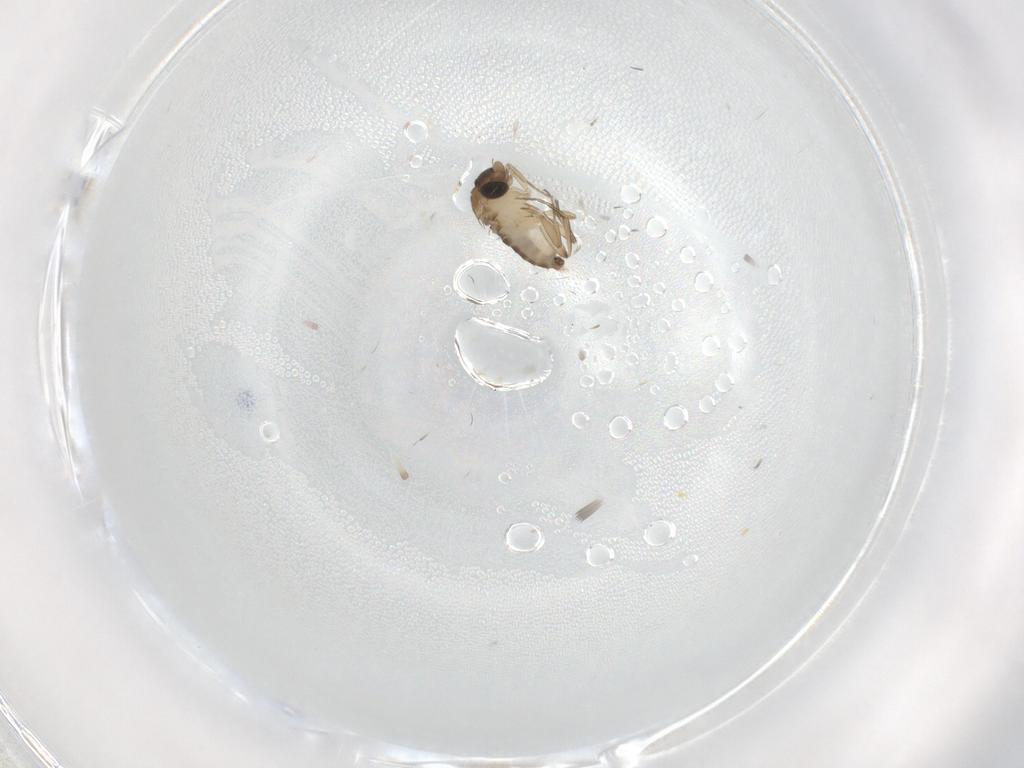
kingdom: Animalia
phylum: Arthropoda
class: Insecta
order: Diptera
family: Phoridae
